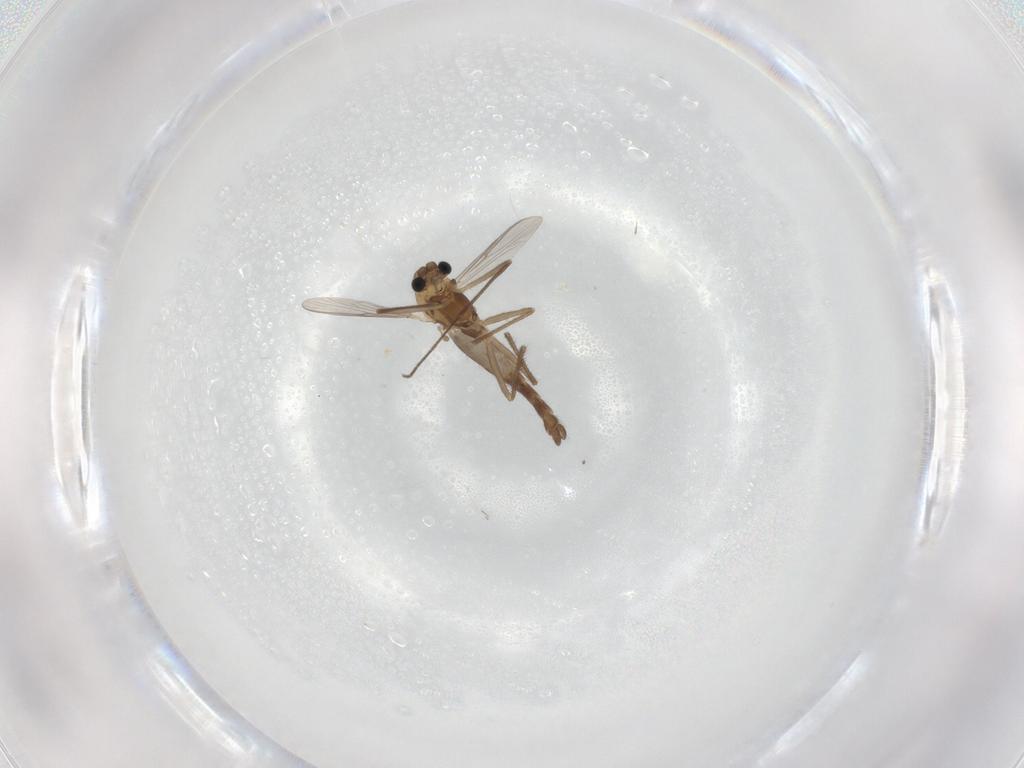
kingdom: Animalia
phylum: Arthropoda
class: Insecta
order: Diptera
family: Chironomidae
